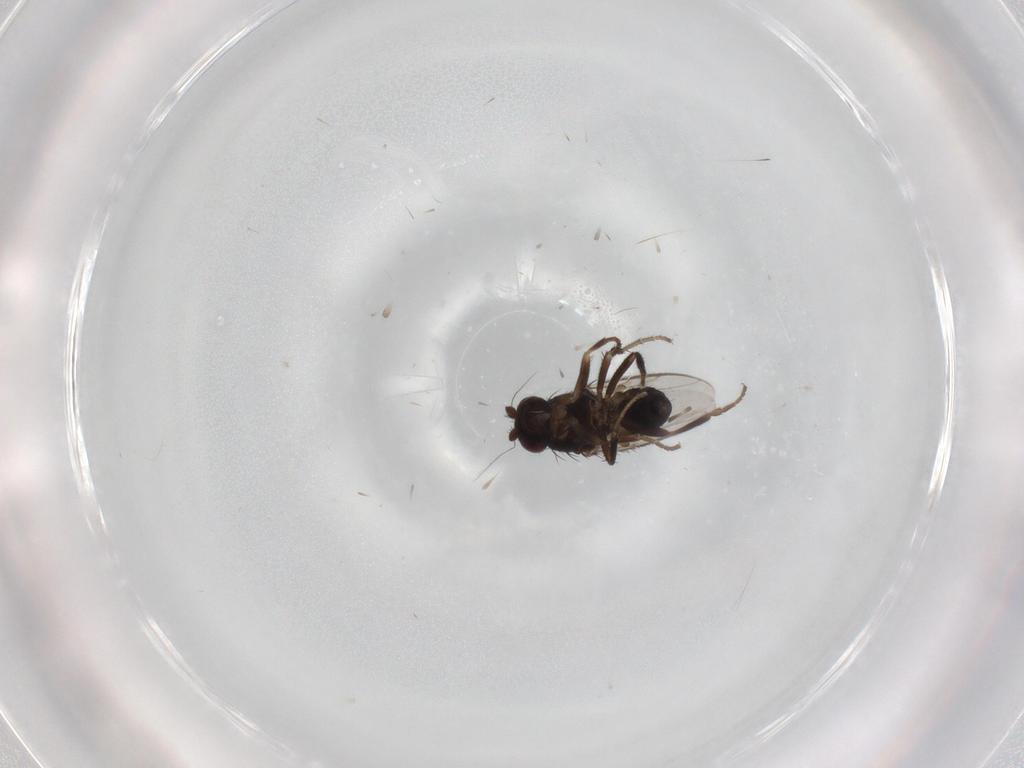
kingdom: Animalia
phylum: Arthropoda
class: Insecta
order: Diptera
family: Sphaeroceridae
